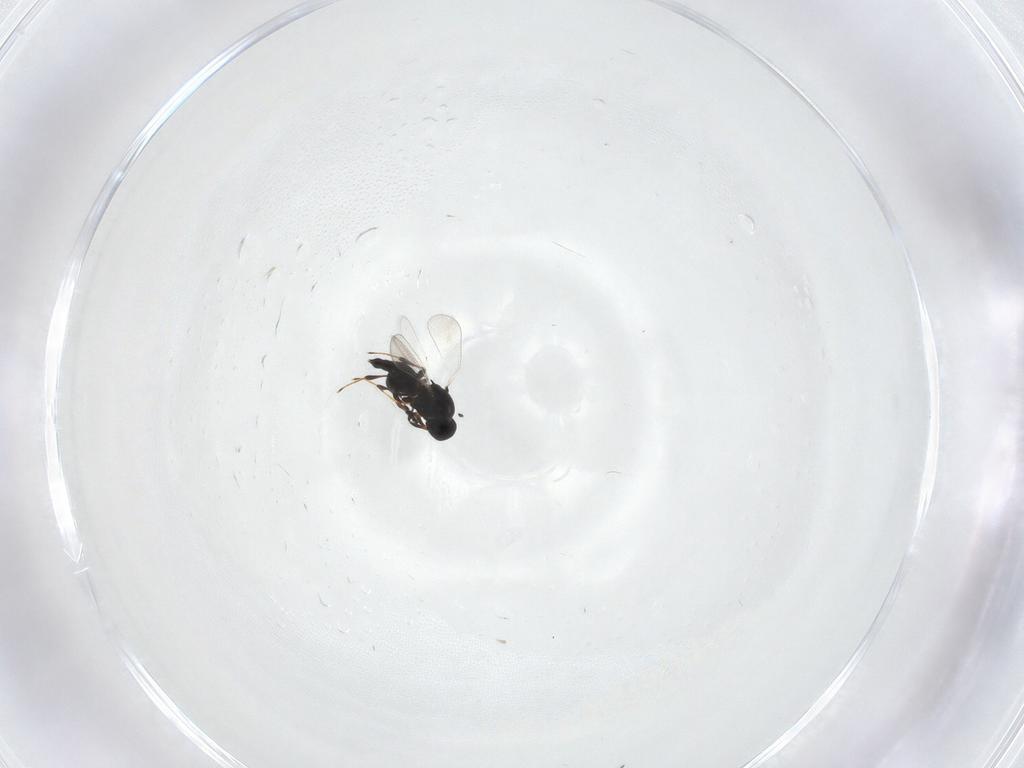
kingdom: Animalia
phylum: Arthropoda
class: Insecta
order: Hymenoptera
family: Platygastridae
